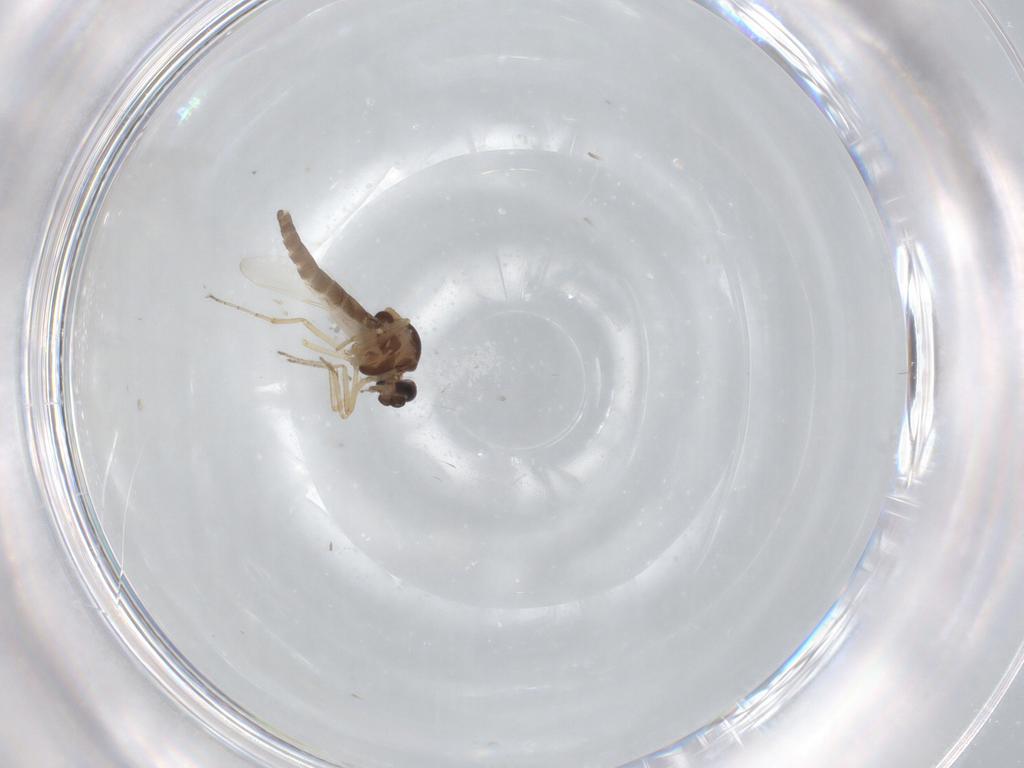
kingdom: Animalia
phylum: Arthropoda
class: Insecta
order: Diptera
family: Ceratopogonidae
